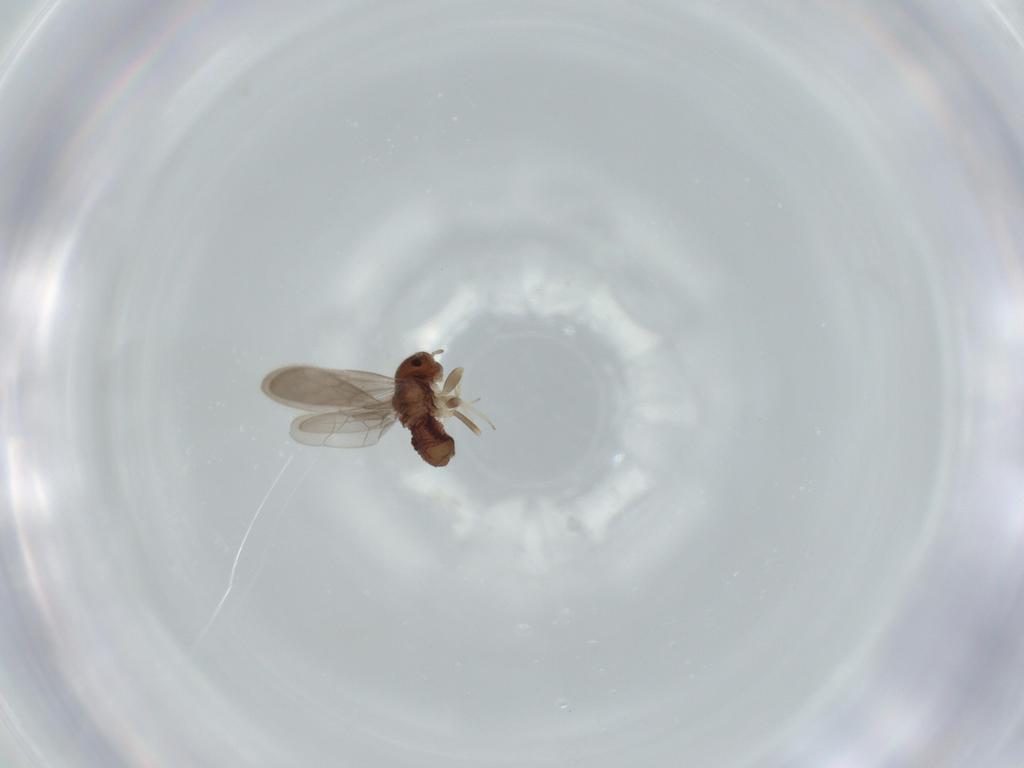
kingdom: Animalia
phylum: Arthropoda
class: Insecta
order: Psocodea
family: Archipsocidae
